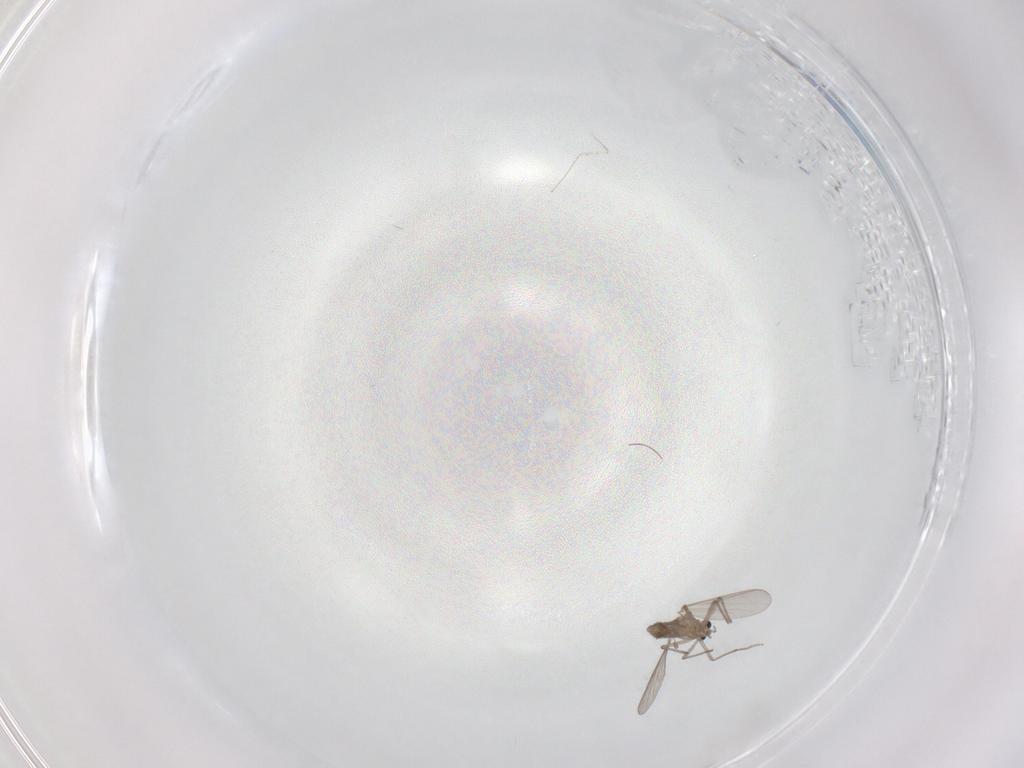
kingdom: Animalia
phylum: Arthropoda
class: Insecta
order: Diptera
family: Chironomidae
